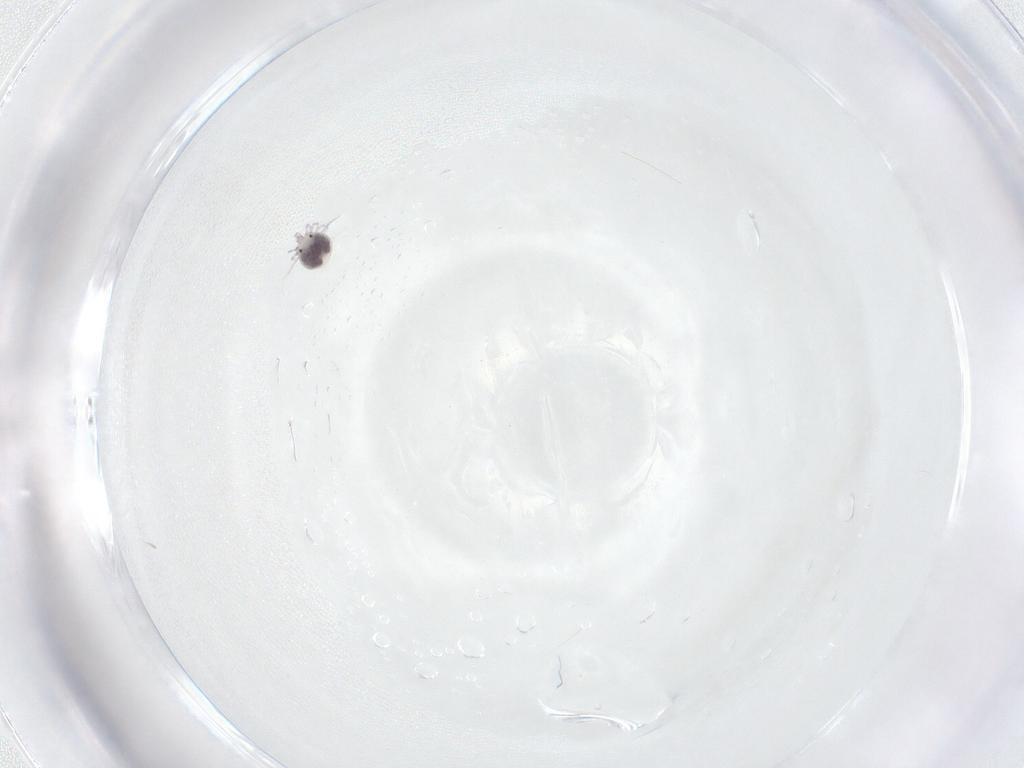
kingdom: Animalia
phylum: Arthropoda
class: Arachnida
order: Trombidiformes
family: Pionidae
